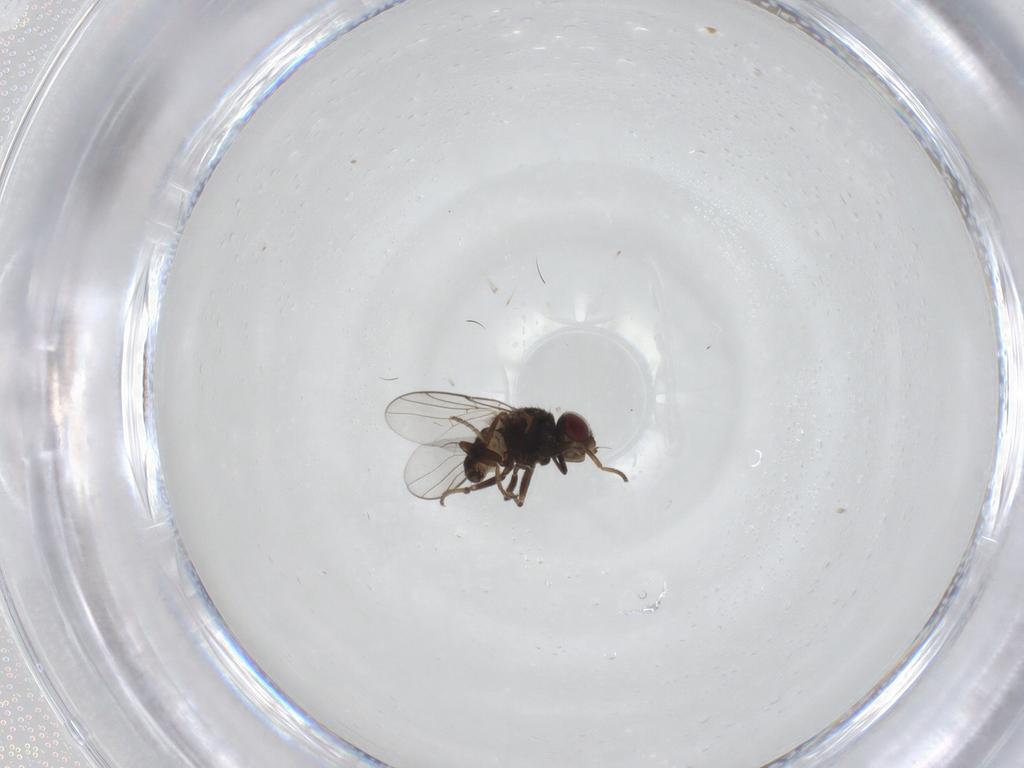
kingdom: Animalia
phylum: Arthropoda
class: Insecta
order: Diptera
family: Chloropidae
